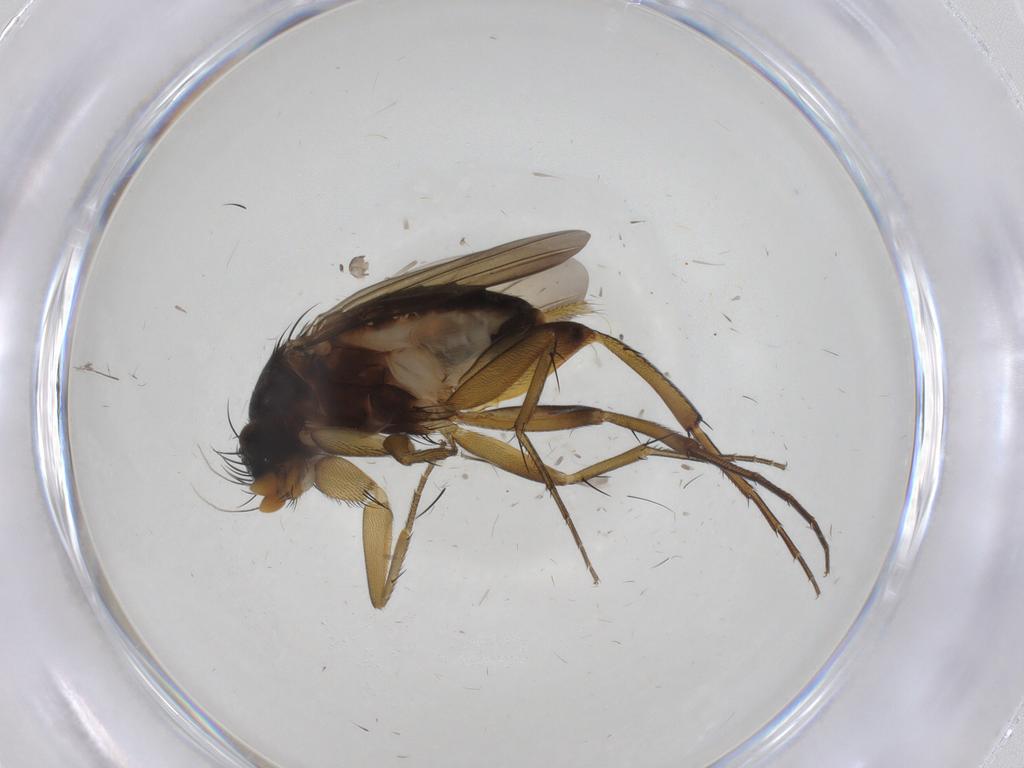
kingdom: Animalia
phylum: Arthropoda
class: Insecta
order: Diptera
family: Phoridae
